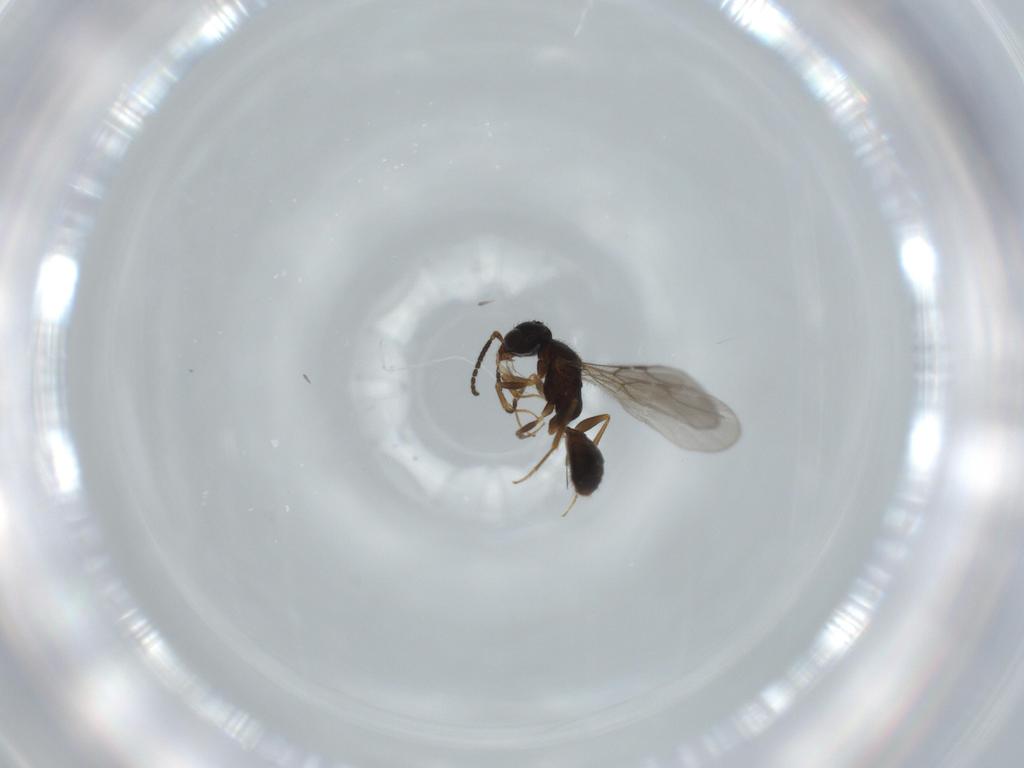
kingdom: Animalia
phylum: Arthropoda
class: Insecta
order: Hymenoptera
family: Bethylidae
